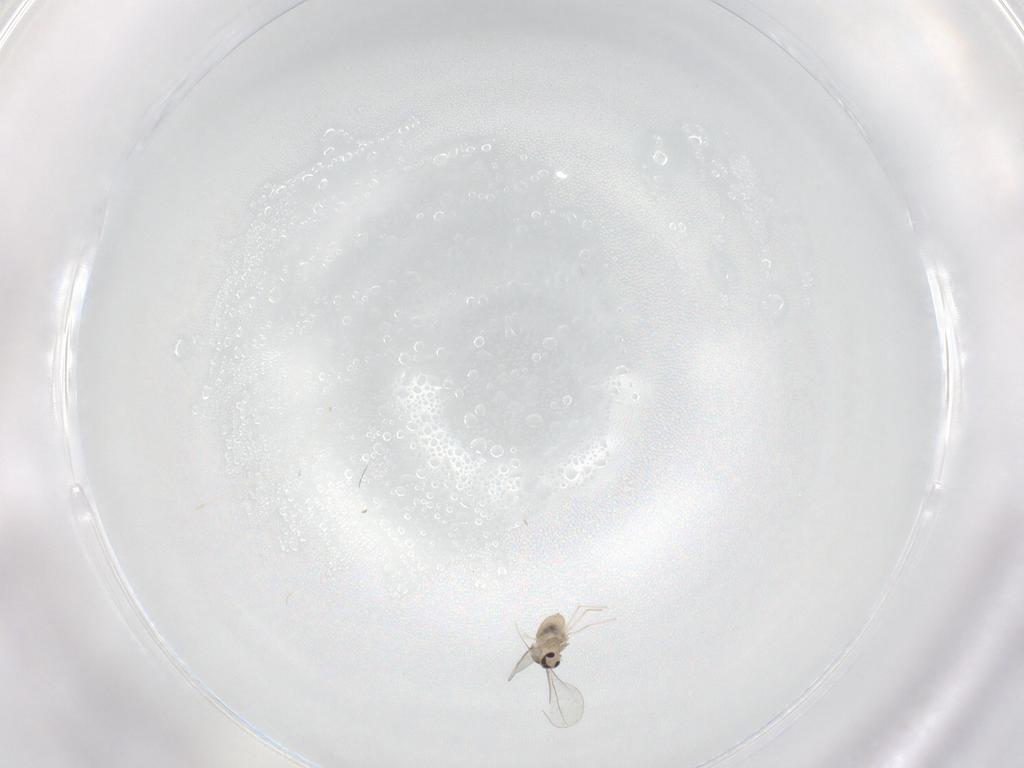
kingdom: Animalia
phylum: Arthropoda
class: Insecta
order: Diptera
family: Cecidomyiidae
